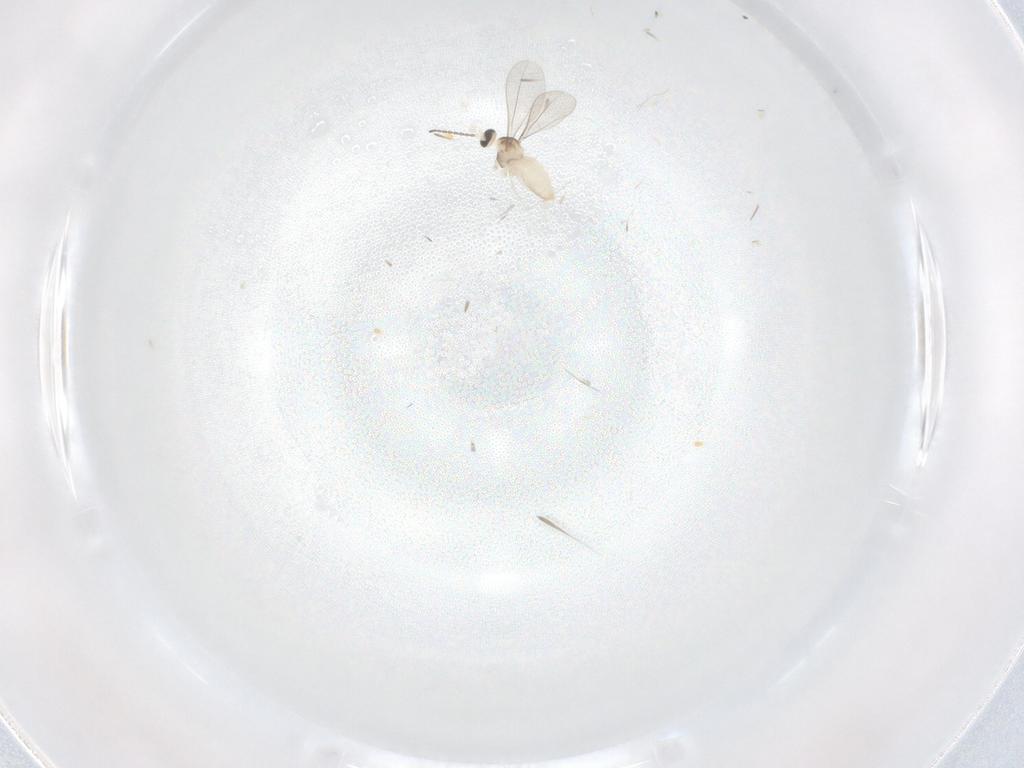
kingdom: Animalia
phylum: Arthropoda
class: Insecta
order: Diptera
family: Cecidomyiidae
